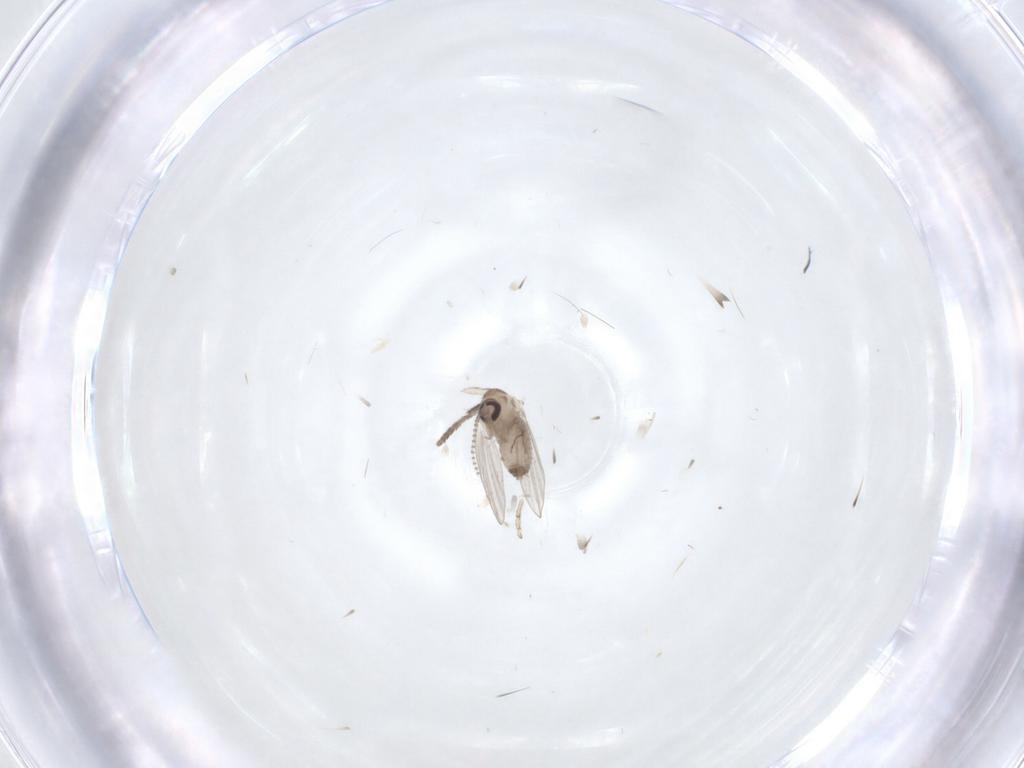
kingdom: Animalia
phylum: Arthropoda
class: Insecta
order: Diptera
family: Psychodidae
